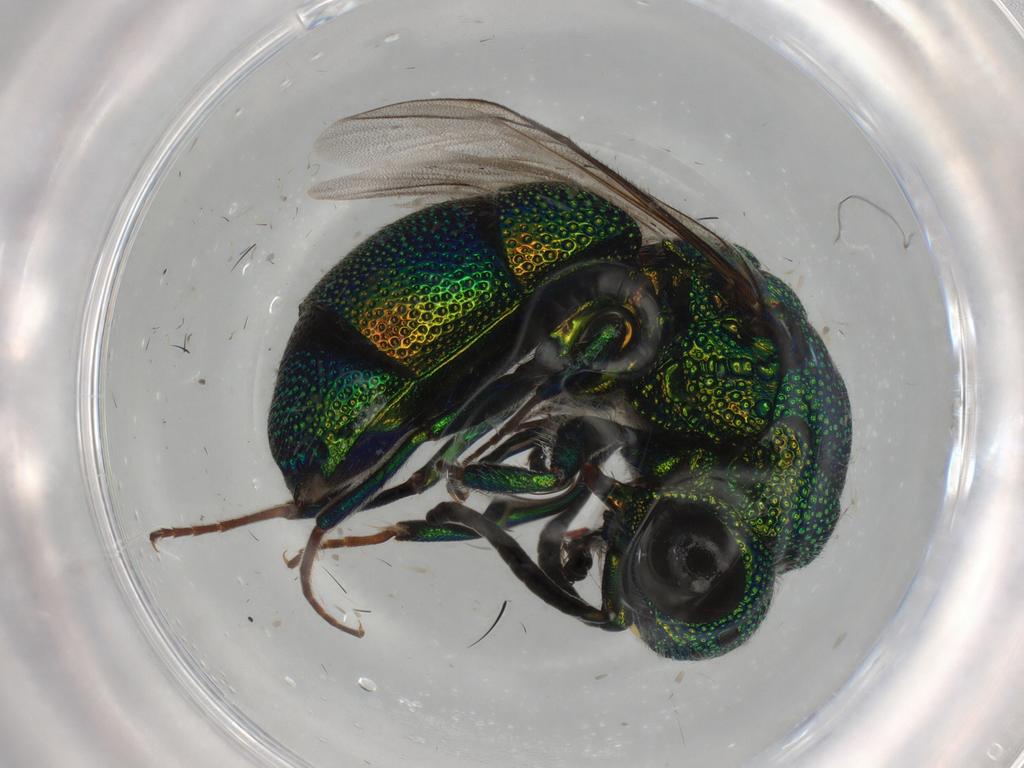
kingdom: Animalia
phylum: Arthropoda
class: Insecta
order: Hymenoptera
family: Chrysididae
